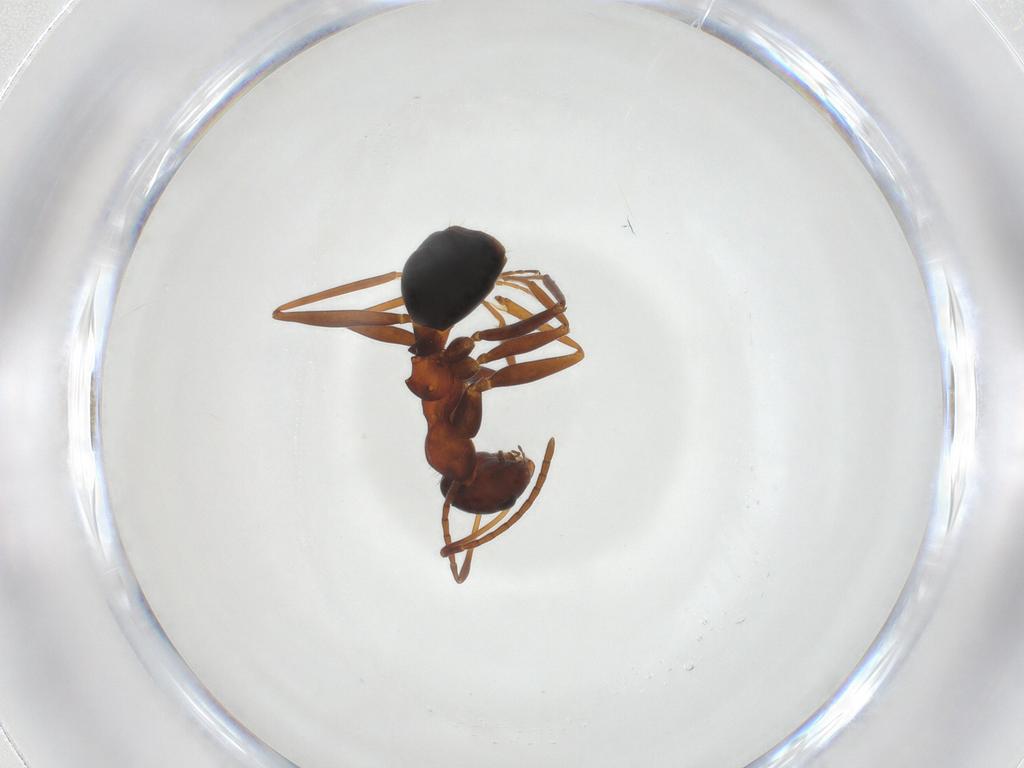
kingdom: Animalia
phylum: Arthropoda
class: Insecta
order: Hymenoptera
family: Formicidae
